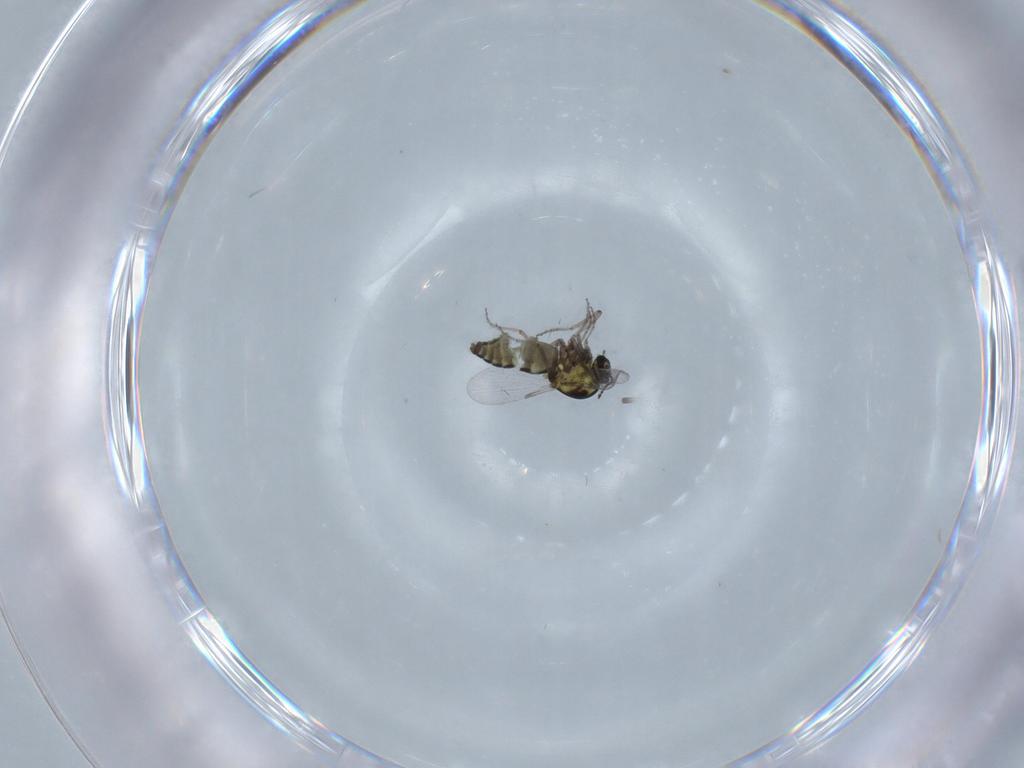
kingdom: Animalia
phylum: Arthropoda
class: Insecta
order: Diptera
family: Ceratopogonidae
